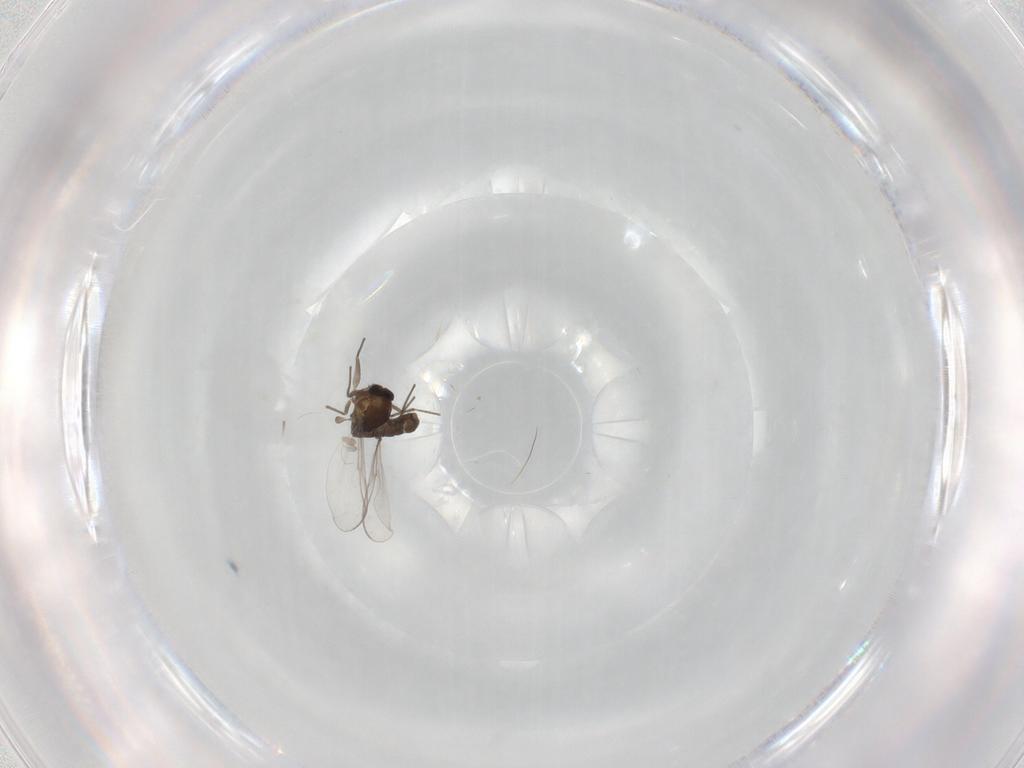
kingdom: Animalia
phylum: Arthropoda
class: Insecta
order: Diptera
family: Chironomidae
